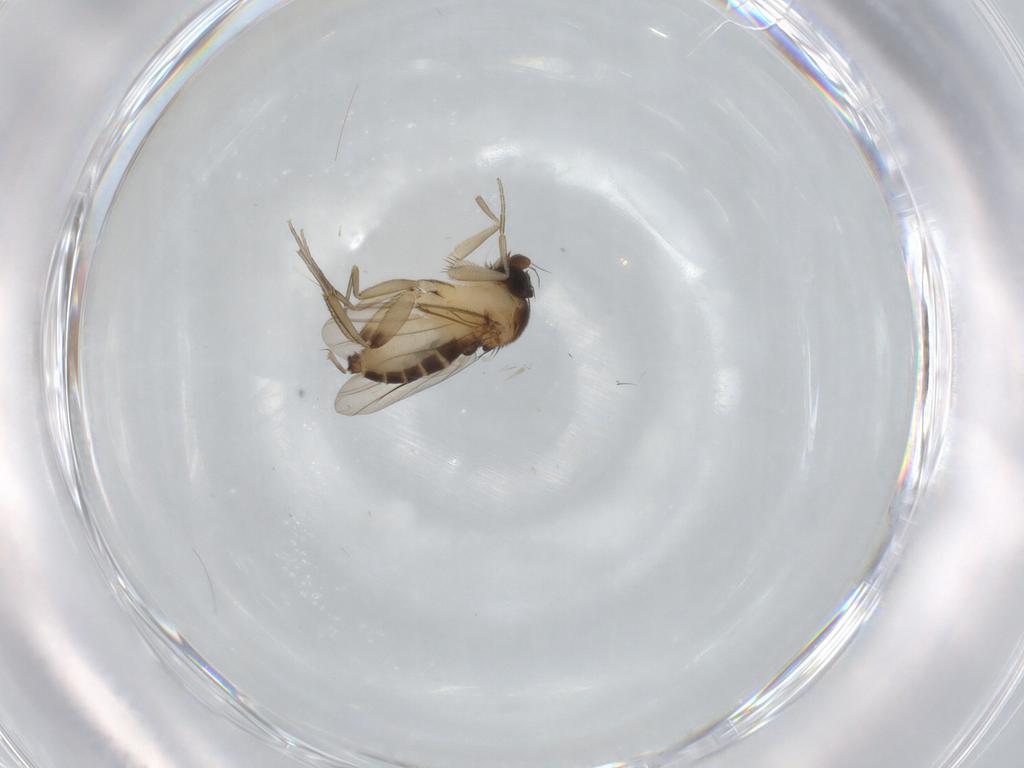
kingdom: Animalia
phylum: Arthropoda
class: Insecta
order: Diptera
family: Phoridae
